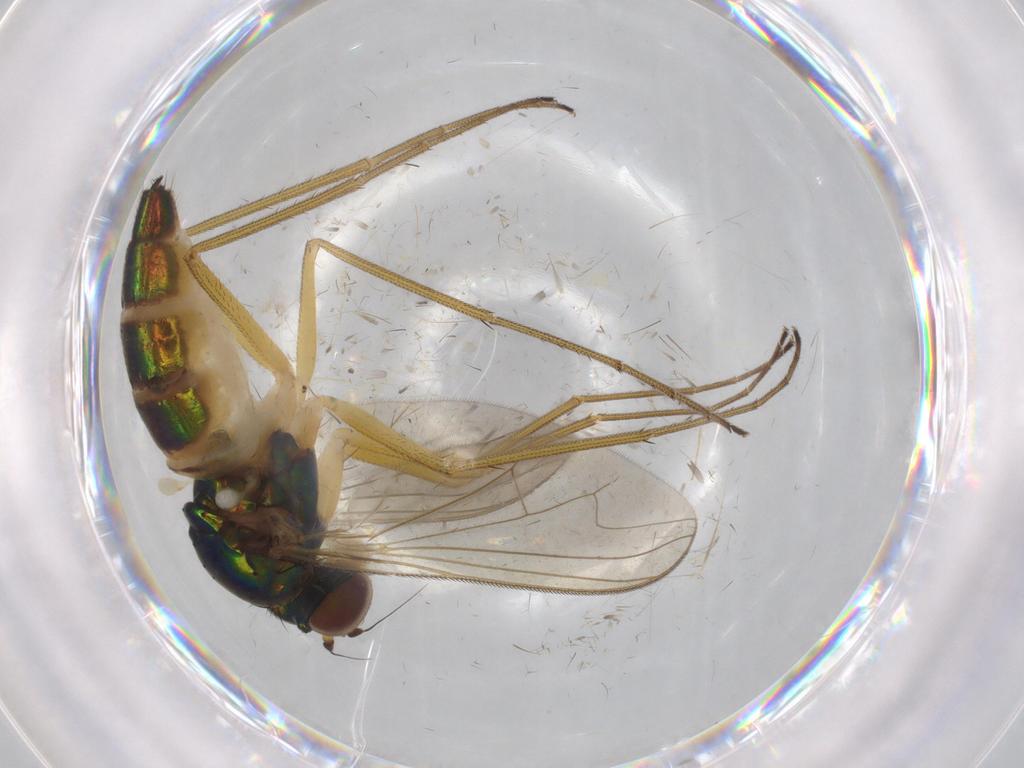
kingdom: Animalia
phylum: Arthropoda
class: Insecta
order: Diptera
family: Dolichopodidae
